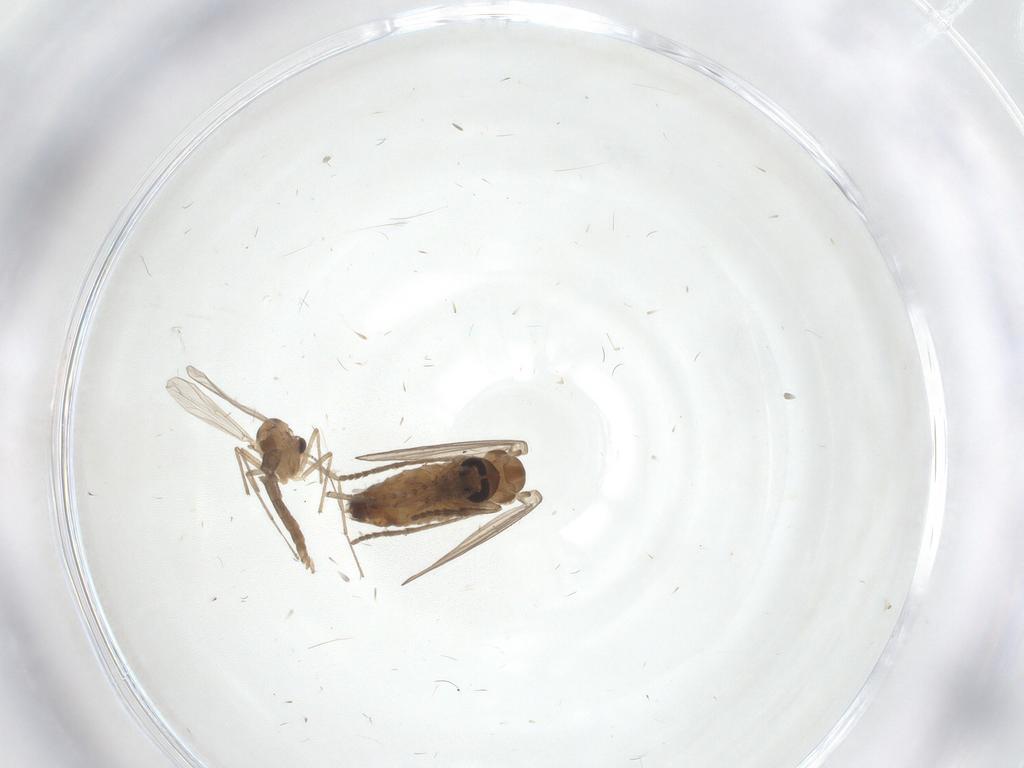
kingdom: Animalia
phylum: Arthropoda
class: Insecta
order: Diptera
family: Psychodidae
